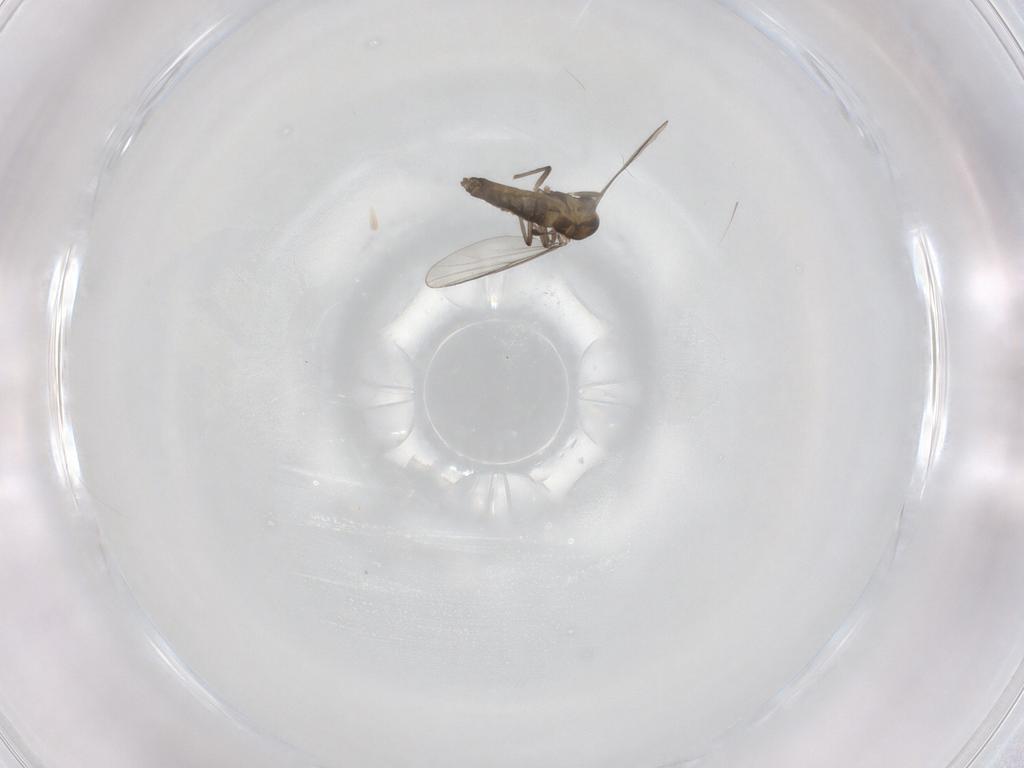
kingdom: Animalia
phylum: Arthropoda
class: Insecta
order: Diptera
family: Chironomidae
